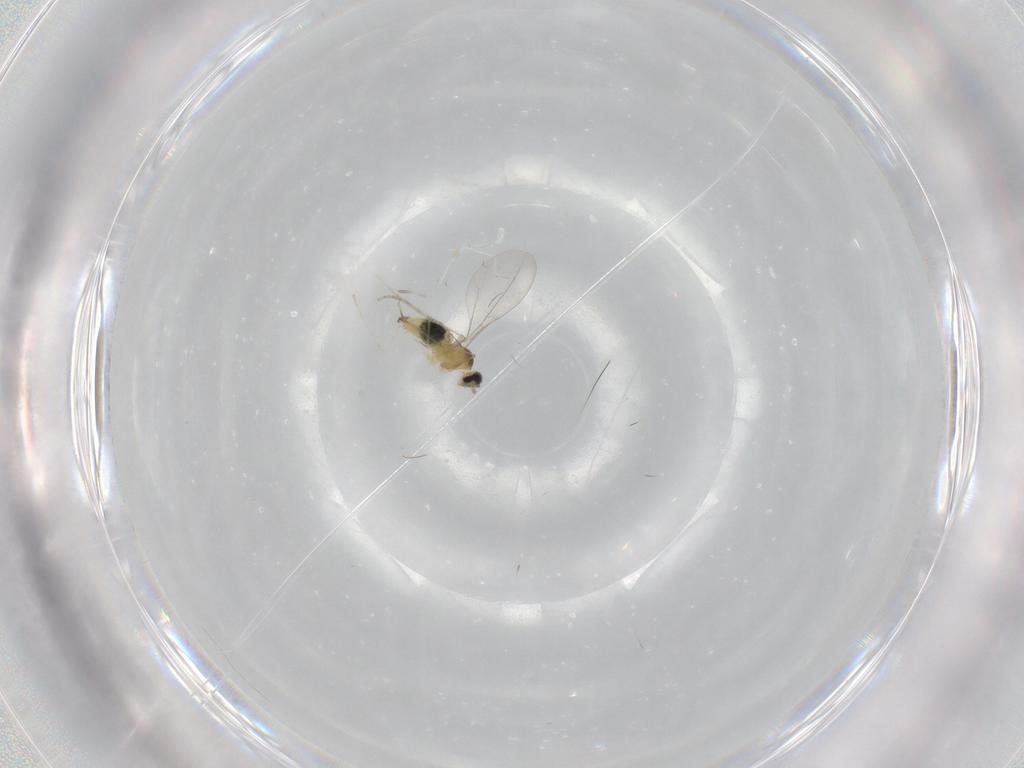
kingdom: Animalia
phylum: Arthropoda
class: Insecta
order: Diptera
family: Cecidomyiidae
